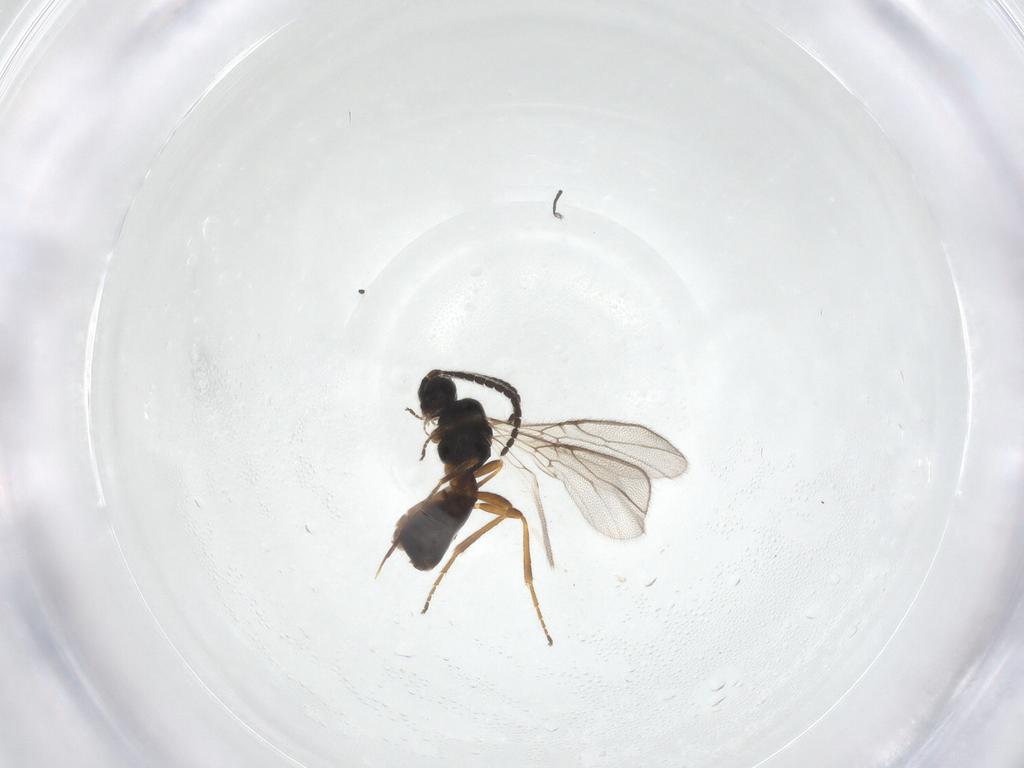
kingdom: Animalia
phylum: Arthropoda
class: Insecta
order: Hymenoptera
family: Braconidae
